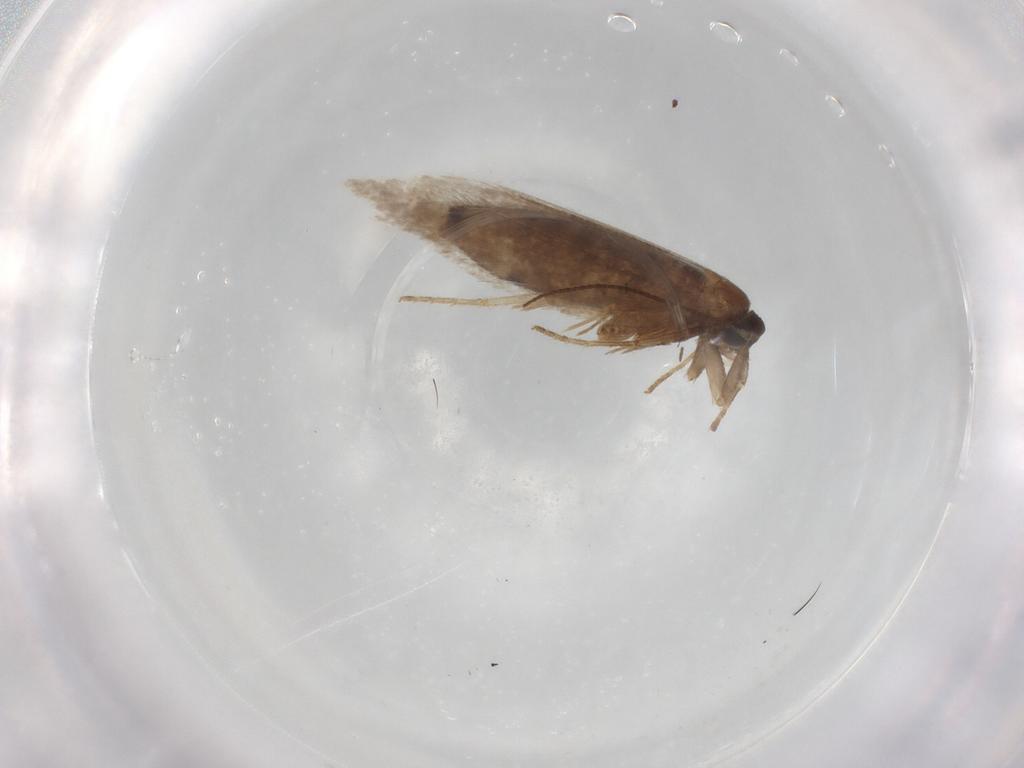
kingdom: Animalia
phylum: Arthropoda
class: Insecta
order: Lepidoptera
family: Nepticulidae
